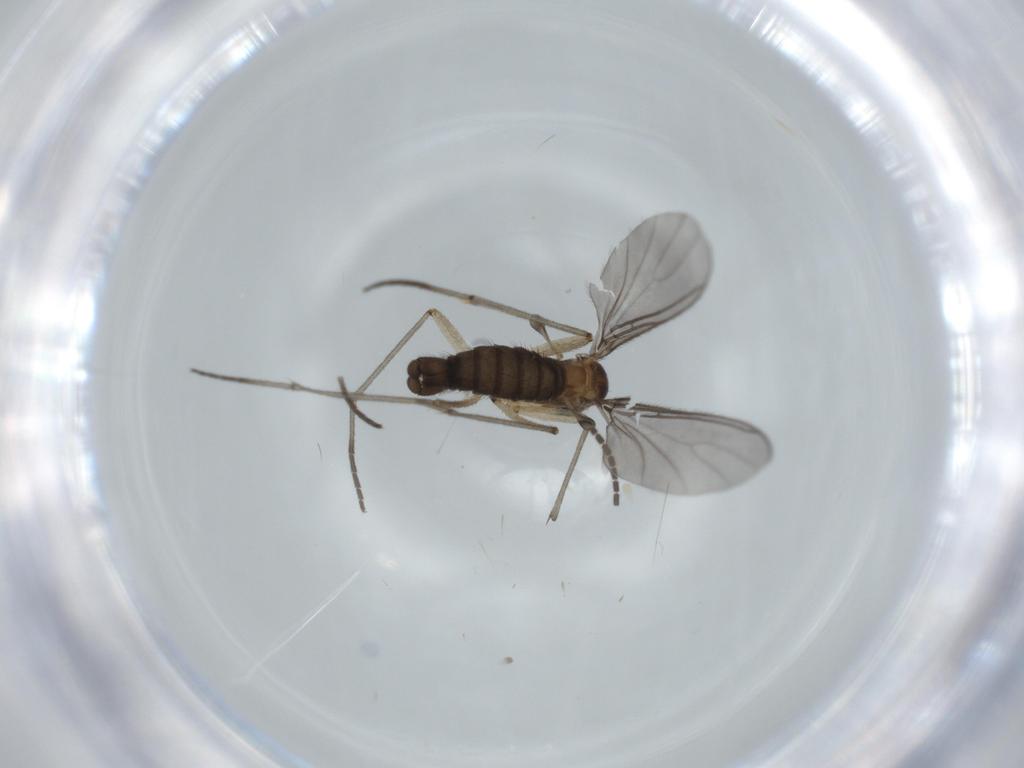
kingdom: Animalia
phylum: Arthropoda
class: Insecta
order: Diptera
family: Sciaridae
